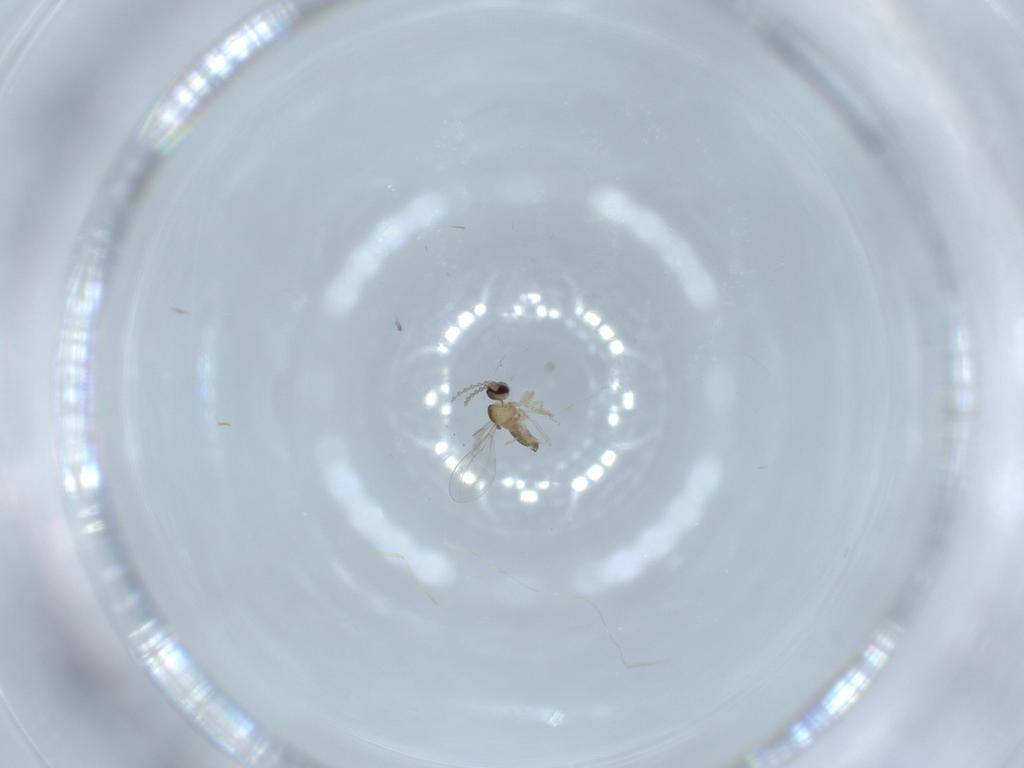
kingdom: Animalia
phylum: Arthropoda
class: Insecta
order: Diptera
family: Cecidomyiidae
